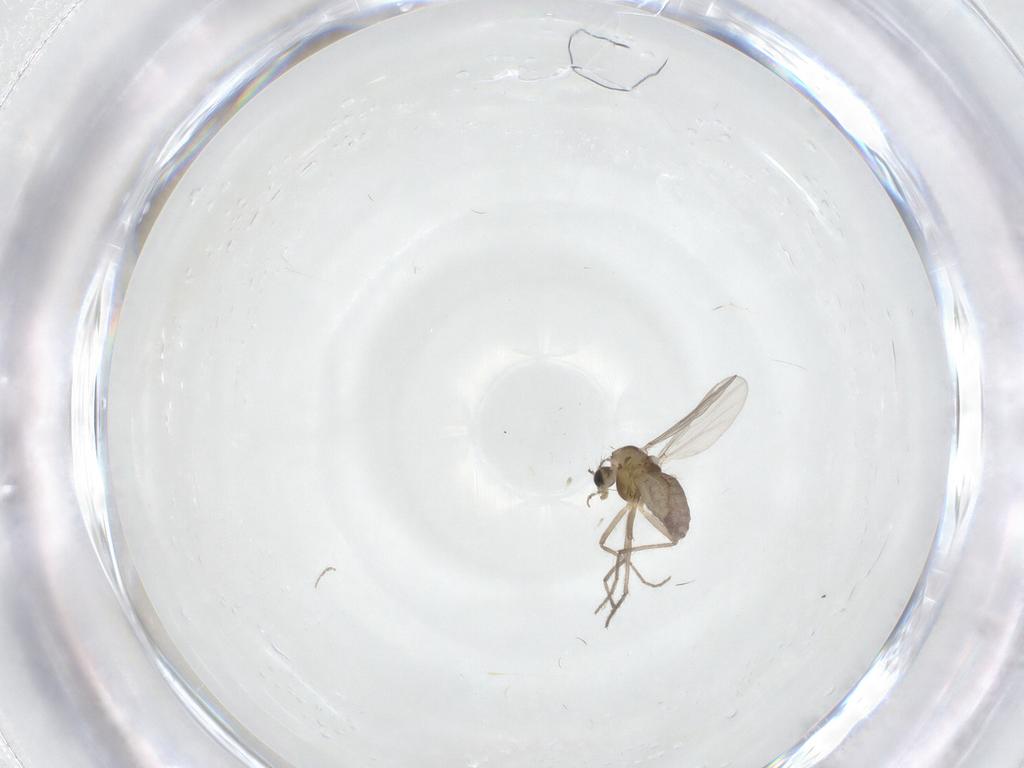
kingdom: Animalia
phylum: Arthropoda
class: Insecta
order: Diptera
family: Chironomidae
